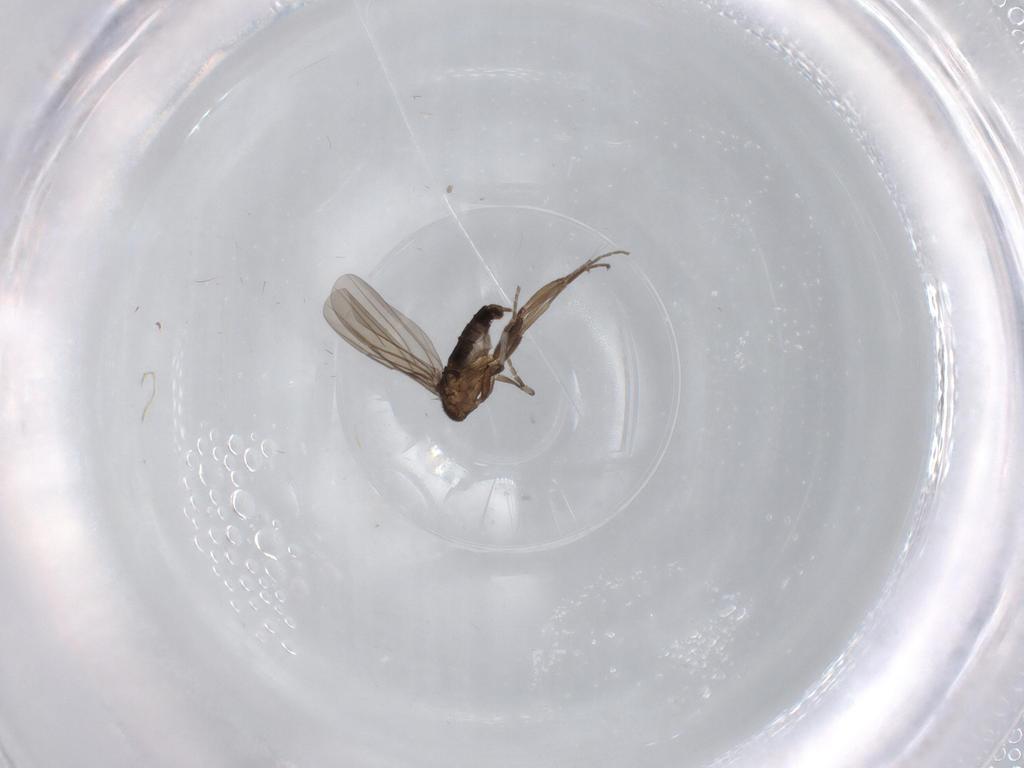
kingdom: Animalia
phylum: Arthropoda
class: Insecta
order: Diptera
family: Phoridae
